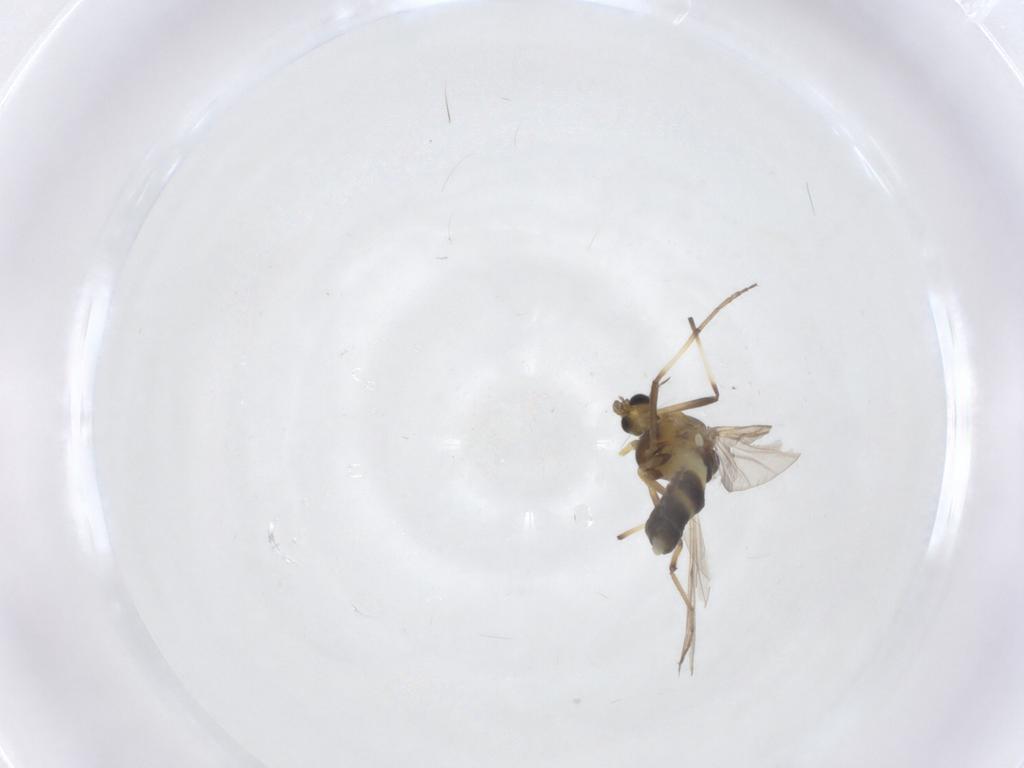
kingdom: Animalia
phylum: Arthropoda
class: Insecta
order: Diptera
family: Chironomidae
